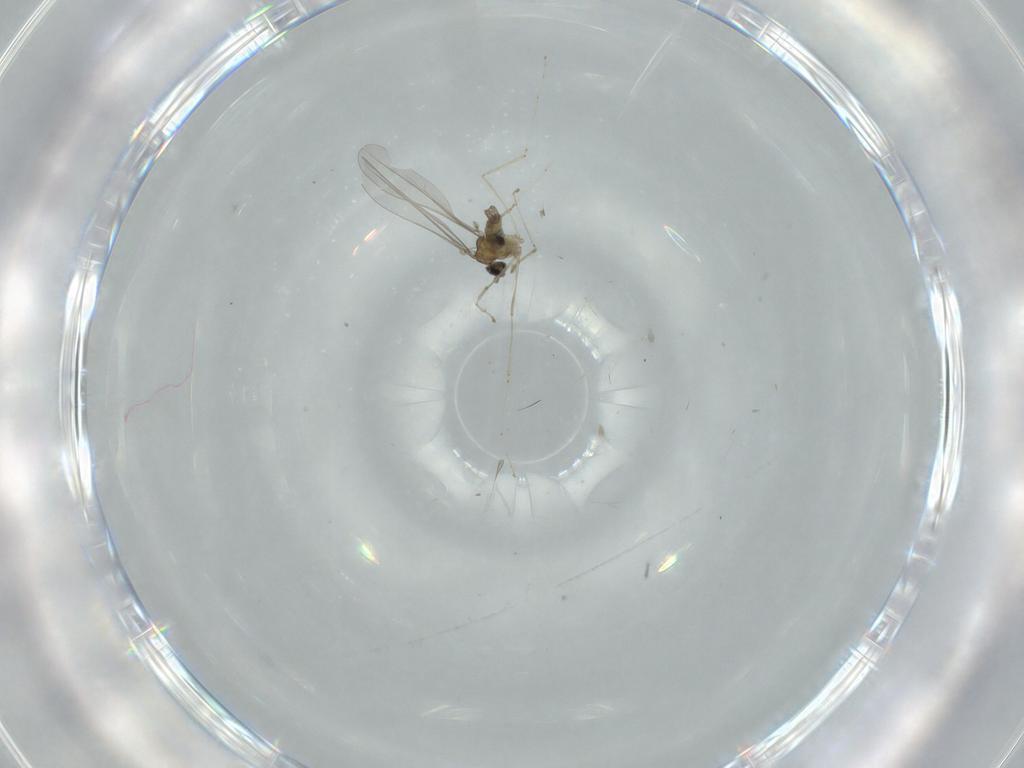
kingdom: Animalia
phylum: Arthropoda
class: Insecta
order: Diptera
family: Cecidomyiidae
